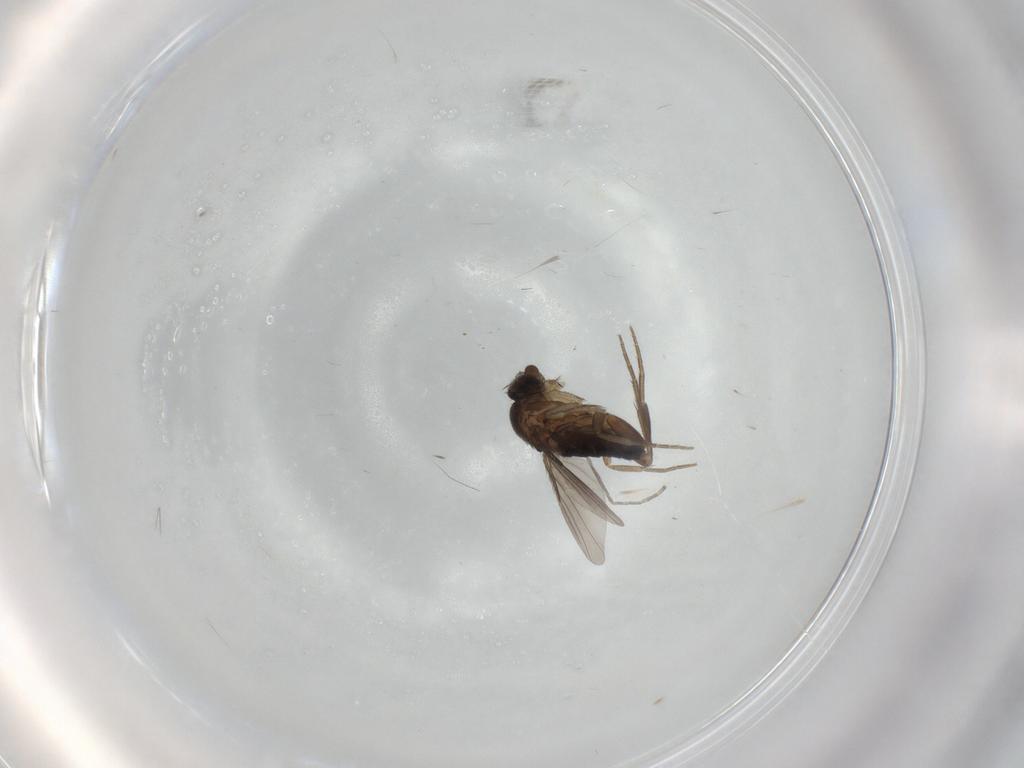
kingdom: Animalia
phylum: Arthropoda
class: Insecta
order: Diptera
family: Phoridae
